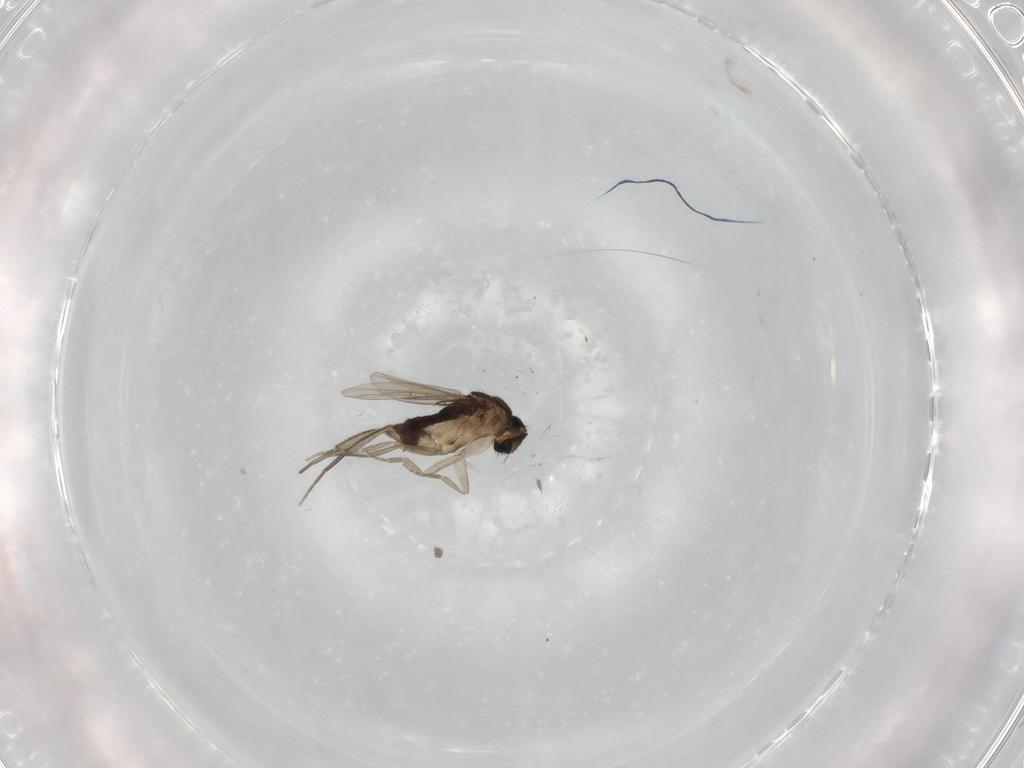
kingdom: Animalia
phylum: Arthropoda
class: Insecta
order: Diptera
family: Phoridae
